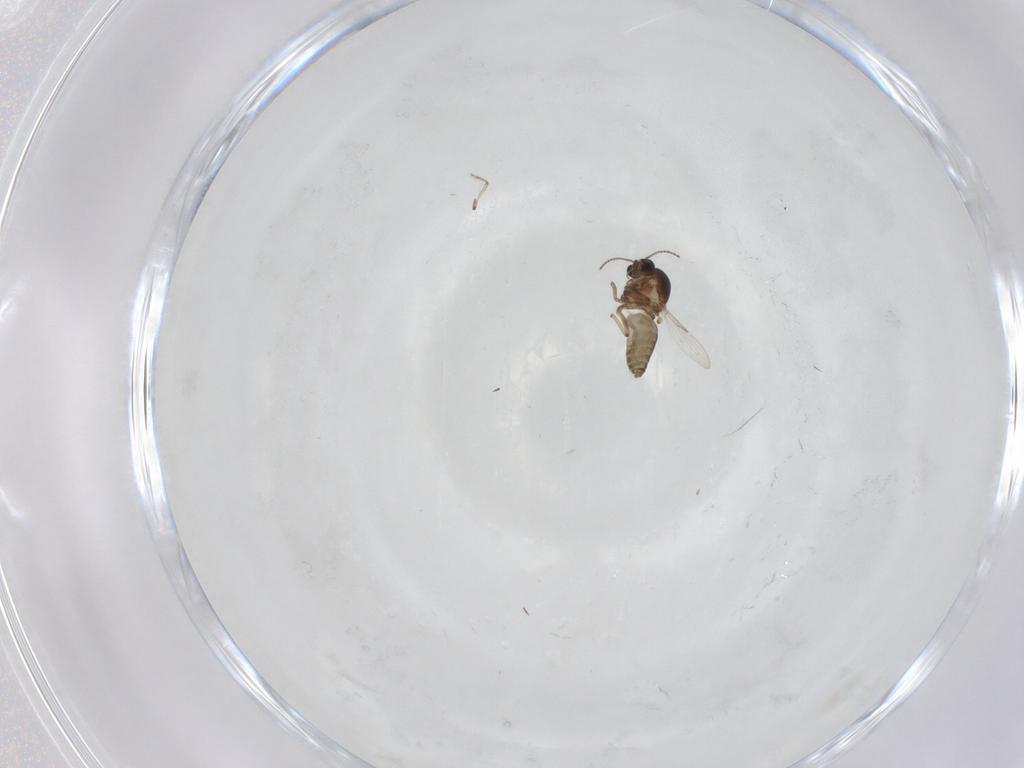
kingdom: Animalia
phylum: Arthropoda
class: Insecta
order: Diptera
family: Ceratopogonidae
